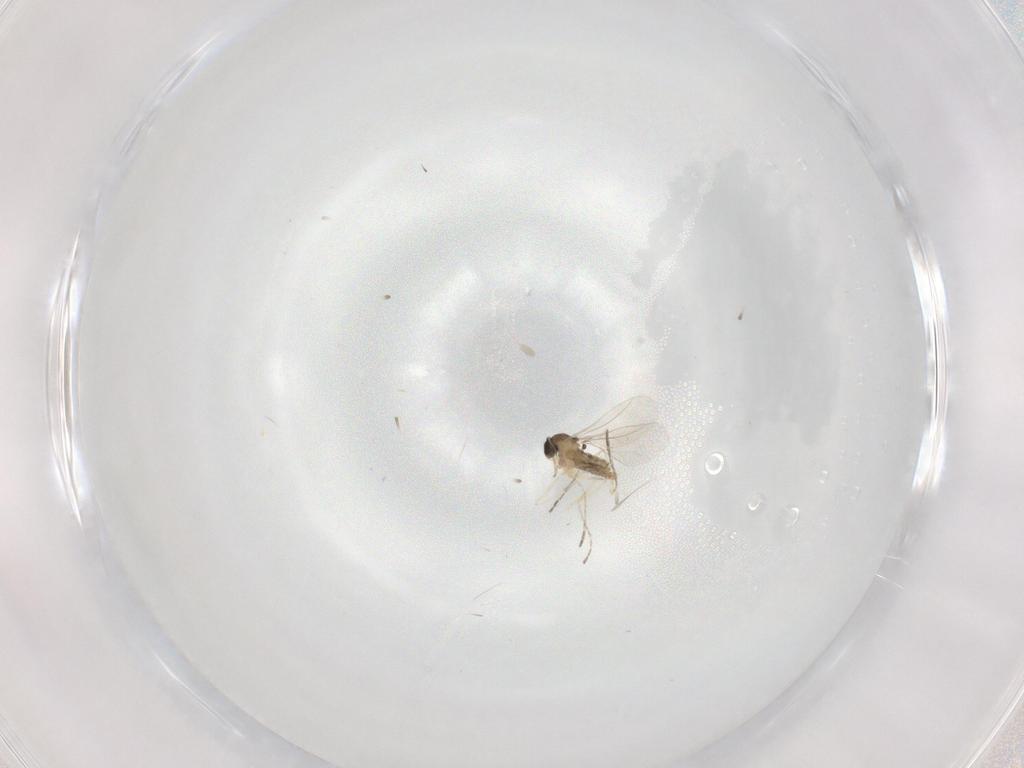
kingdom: Animalia
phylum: Arthropoda
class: Insecta
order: Diptera
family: Cecidomyiidae
